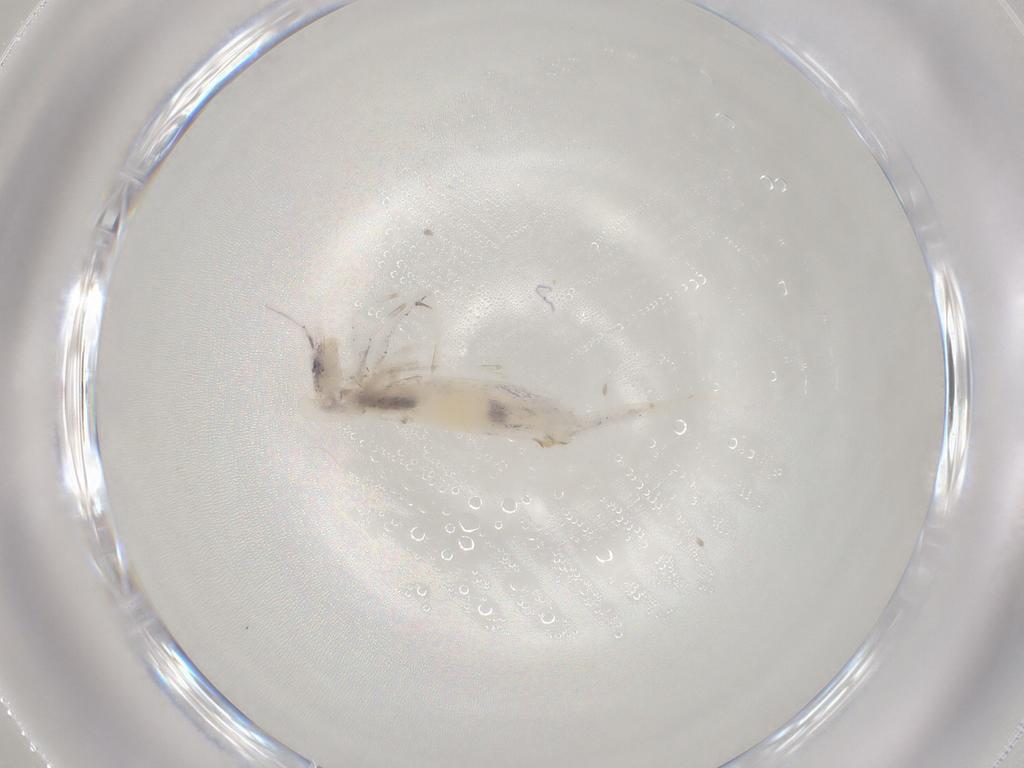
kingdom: Animalia
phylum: Arthropoda
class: Collembola
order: Entomobryomorpha
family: Entomobryidae
